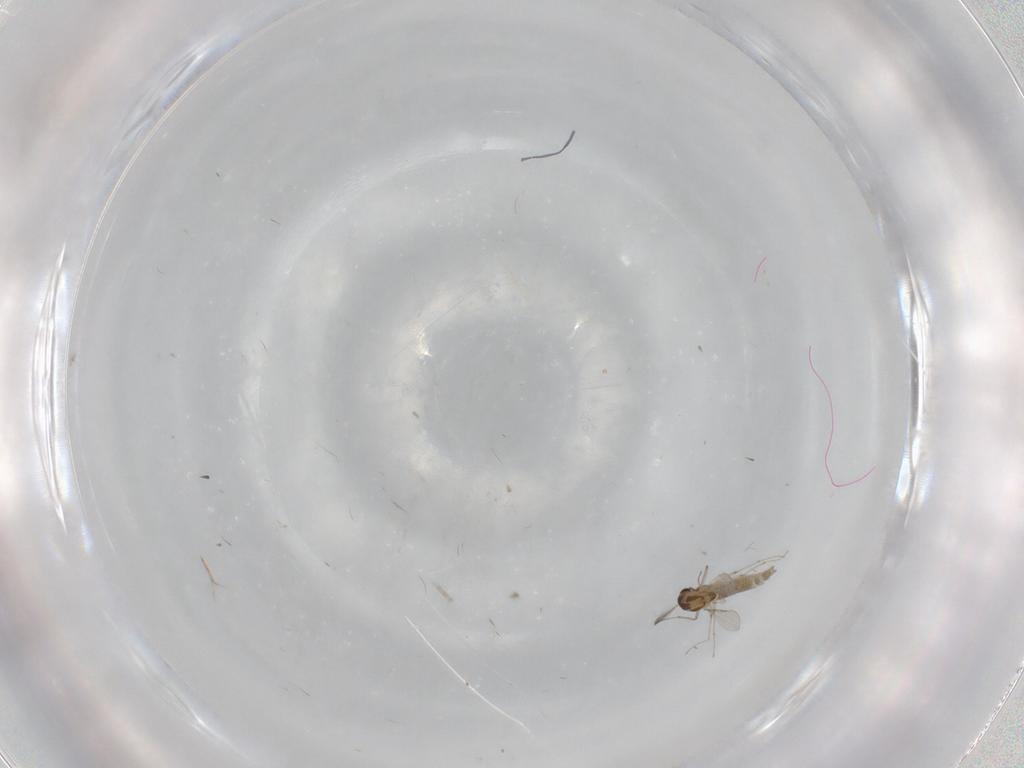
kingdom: Animalia
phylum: Arthropoda
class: Insecta
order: Diptera
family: Chironomidae
